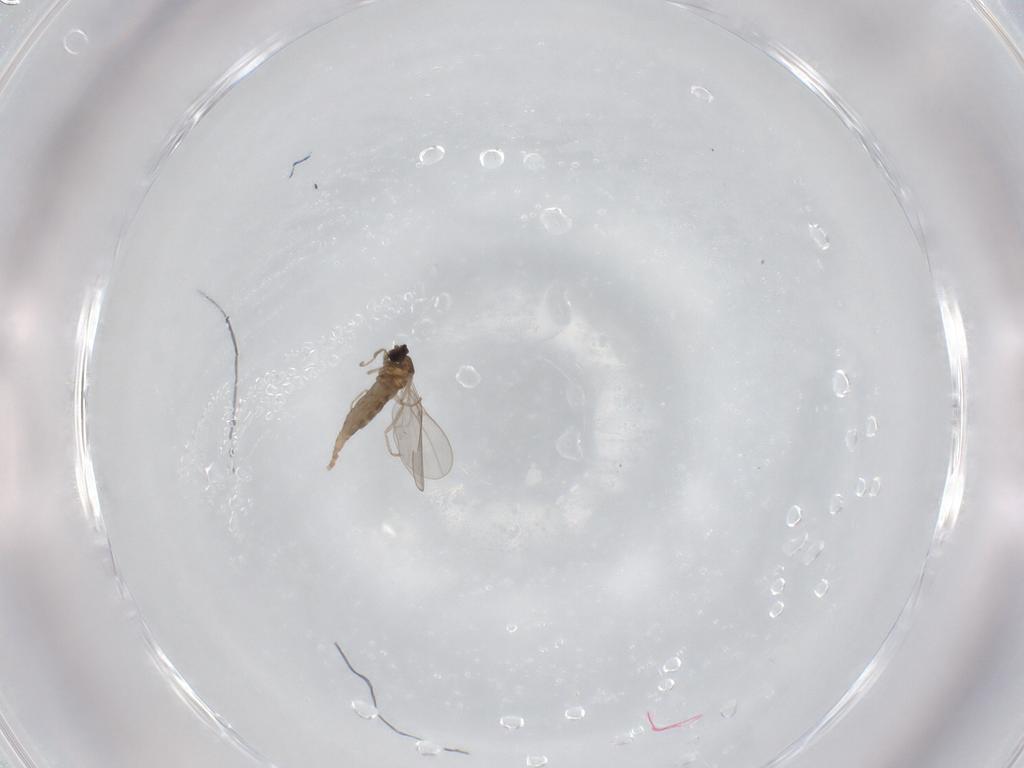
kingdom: Animalia
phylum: Arthropoda
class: Insecta
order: Diptera
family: Cecidomyiidae
